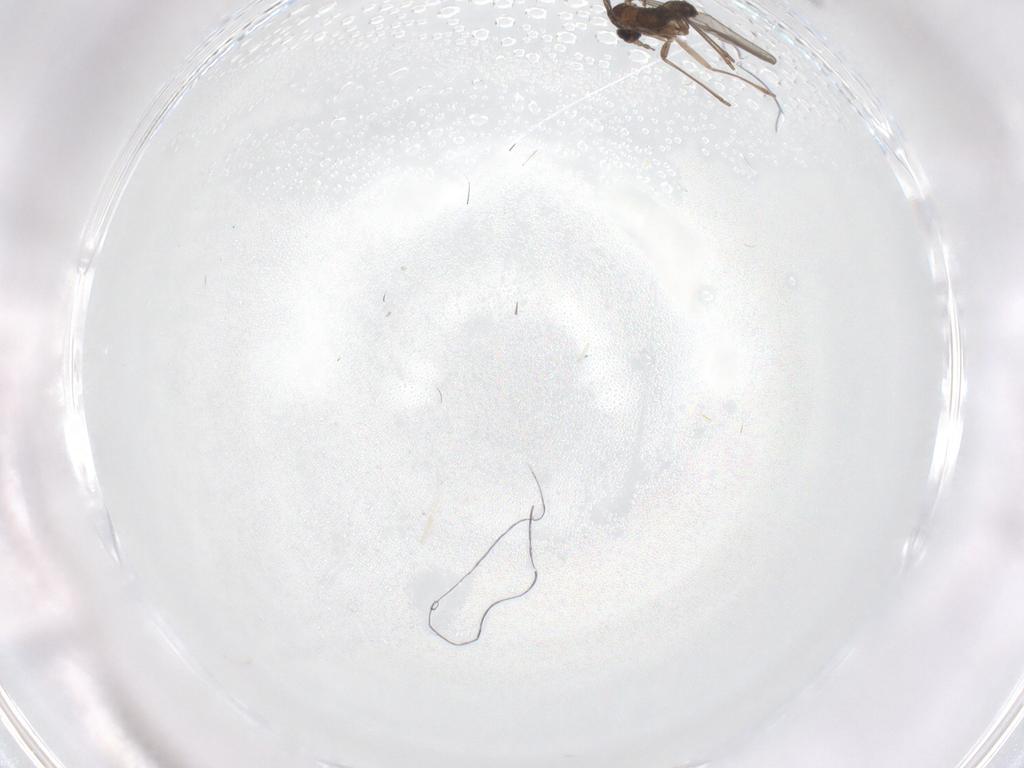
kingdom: Animalia
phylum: Arthropoda
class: Insecta
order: Diptera
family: Cecidomyiidae
